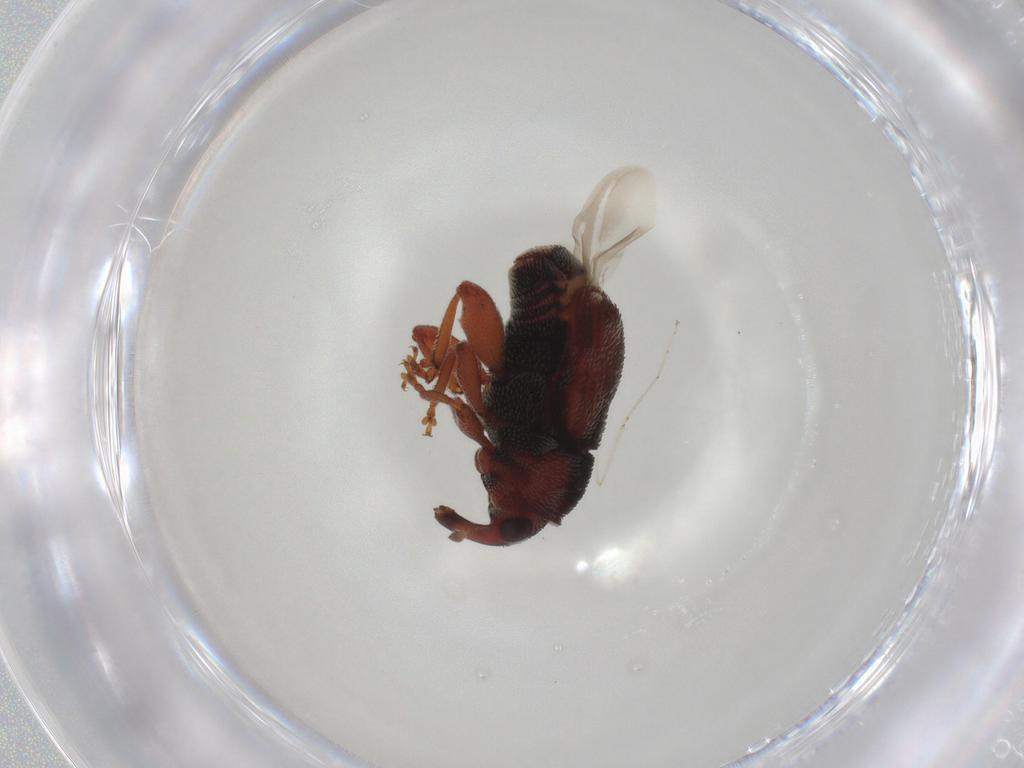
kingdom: Animalia
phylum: Arthropoda
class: Insecta
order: Coleoptera
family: Curculionidae
